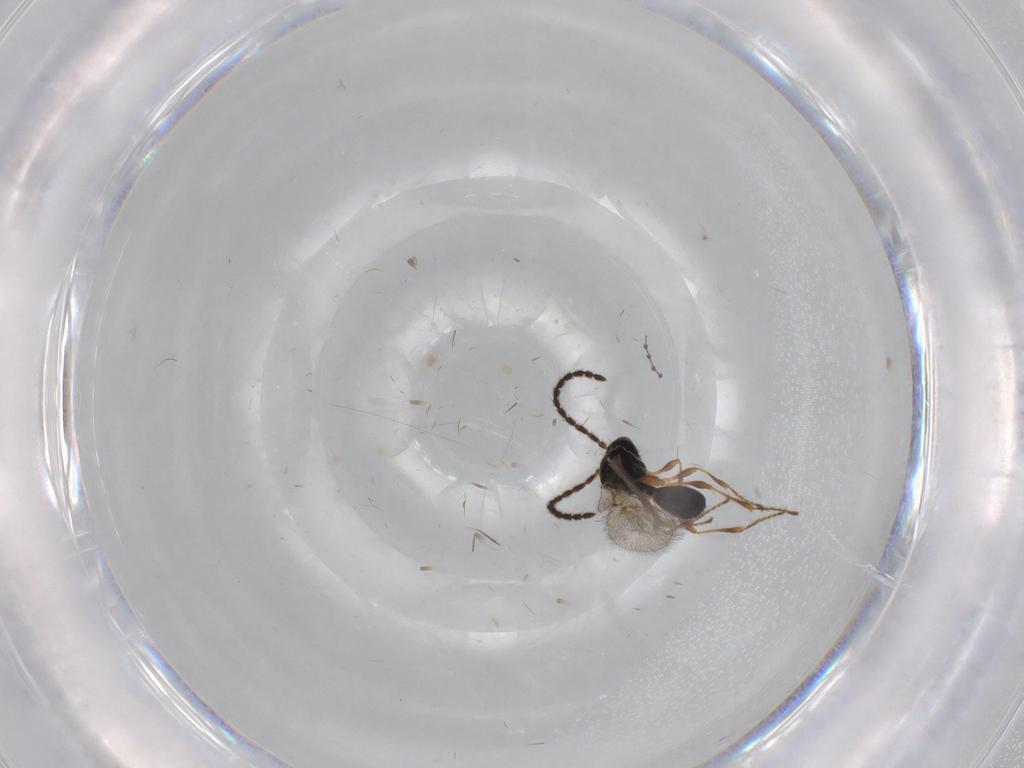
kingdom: Animalia
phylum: Arthropoda
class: Insecta
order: Hymenoptera
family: Diapriidae
